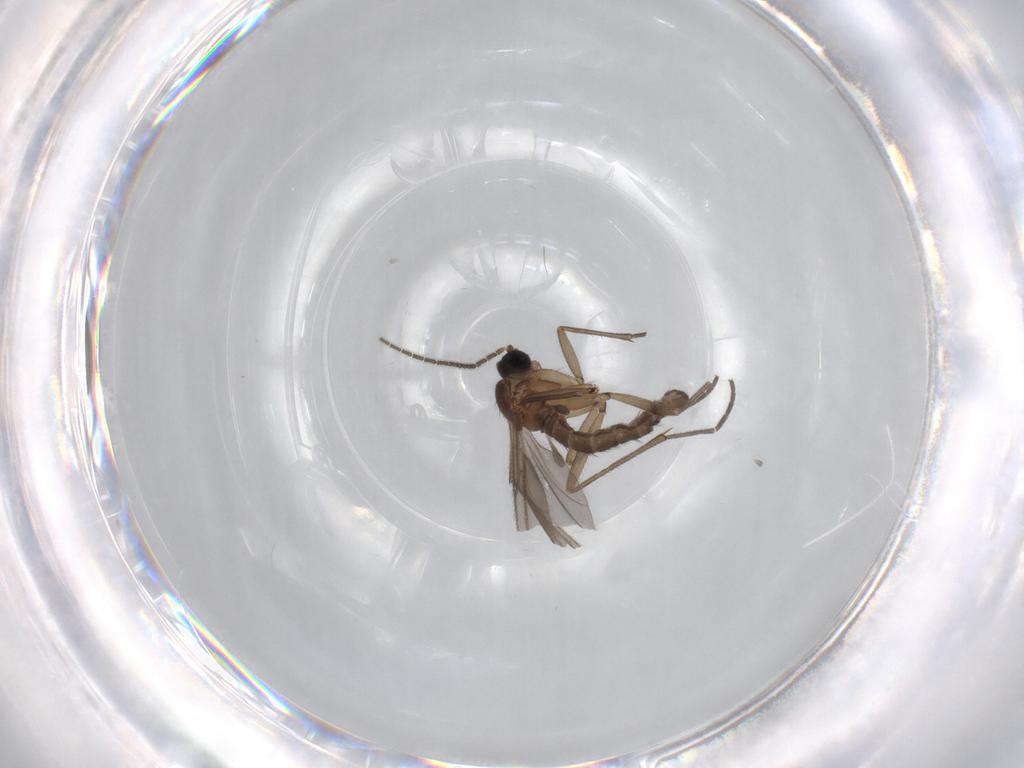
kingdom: Animalia
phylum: Arthropoda
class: Insecta
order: Diptera
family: Sciaridae
